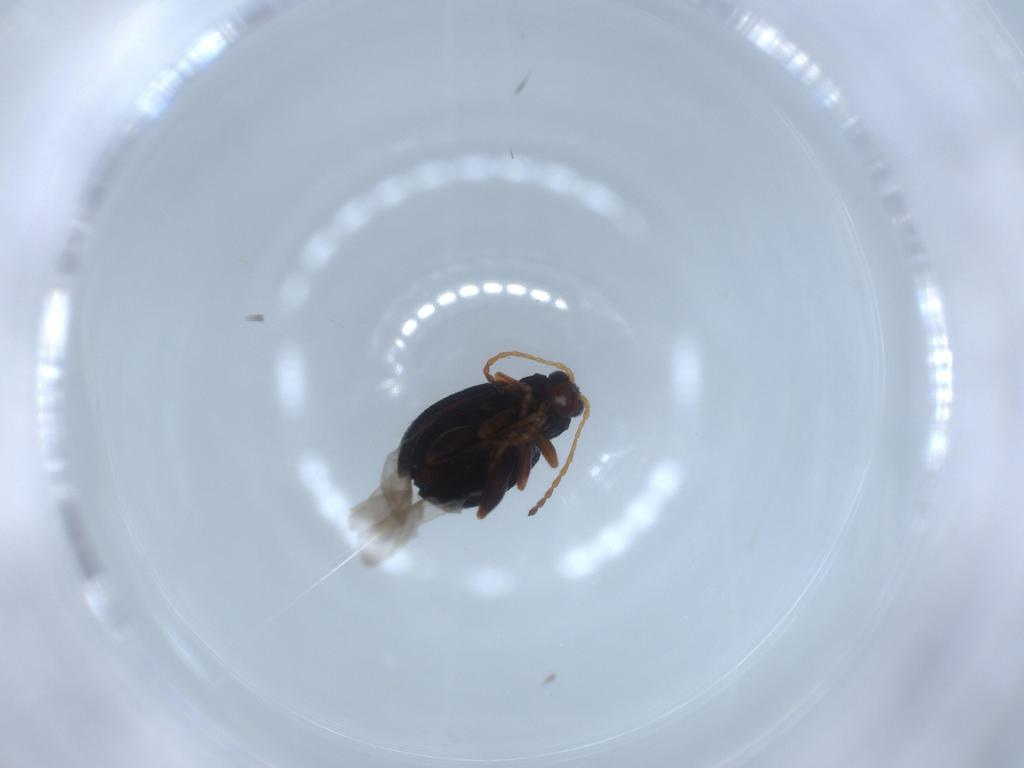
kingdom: Animalia
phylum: Arthropoda
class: Insecta
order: Coleoptera
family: Chrysomelidae
